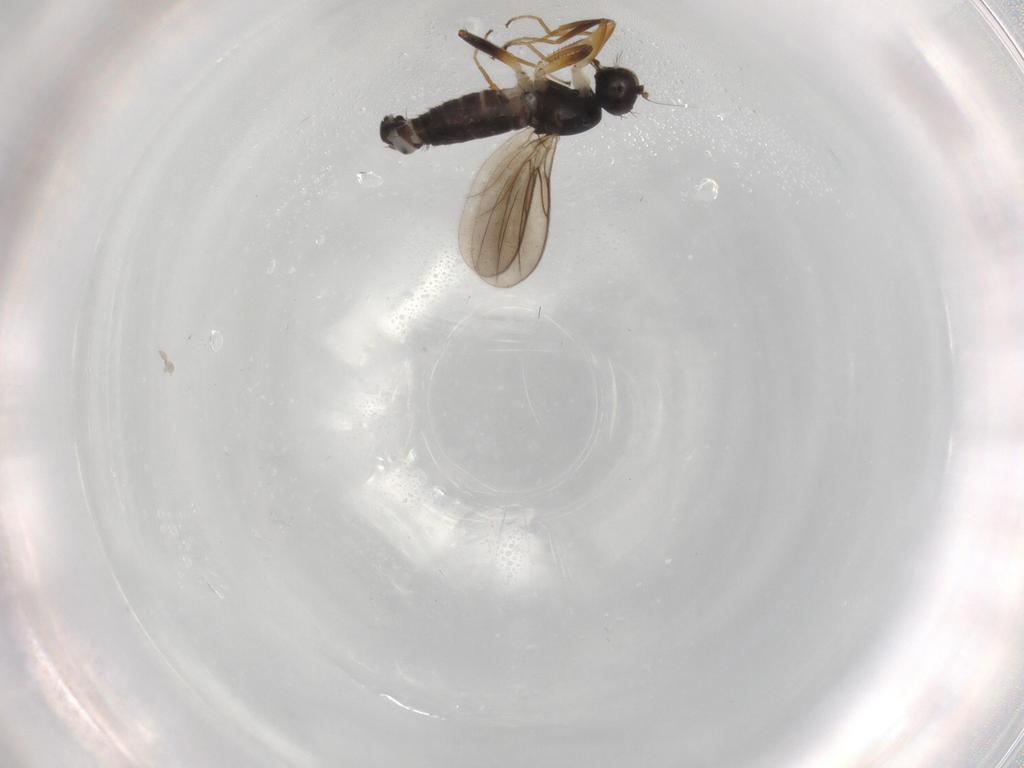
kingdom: Animalia
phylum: Arthropoda
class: Insecta
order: Diptera
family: Hybotidae
